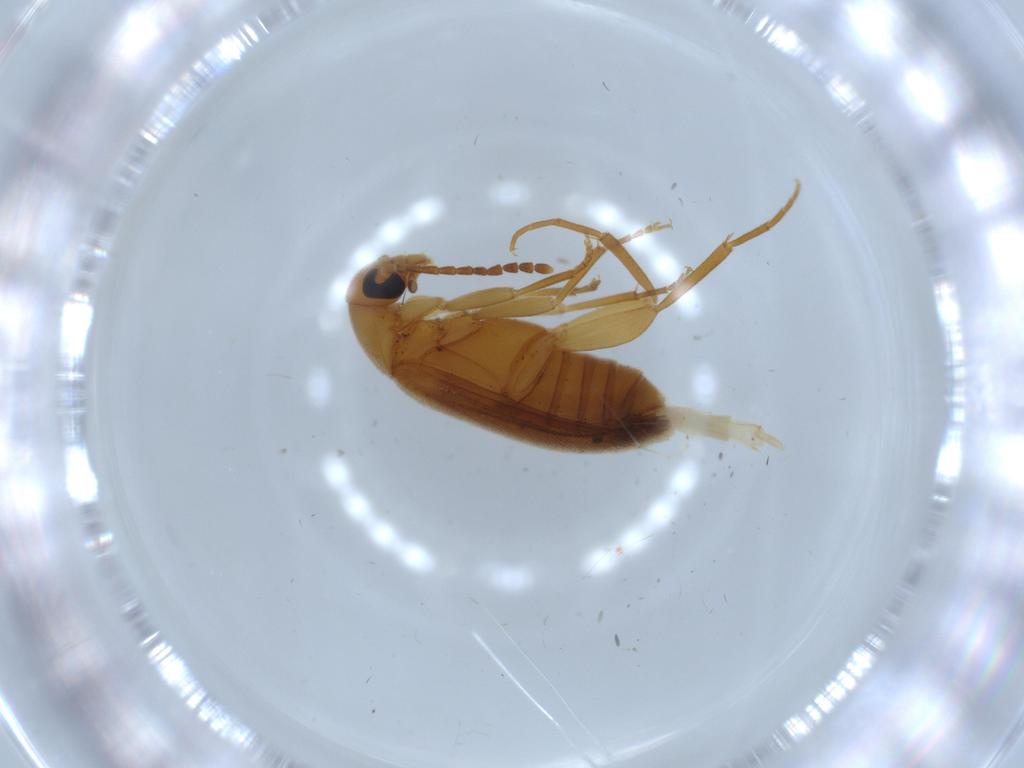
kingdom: Animalia
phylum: Arthropoda
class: Insecta
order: Coleoptera
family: Scraptiidae
